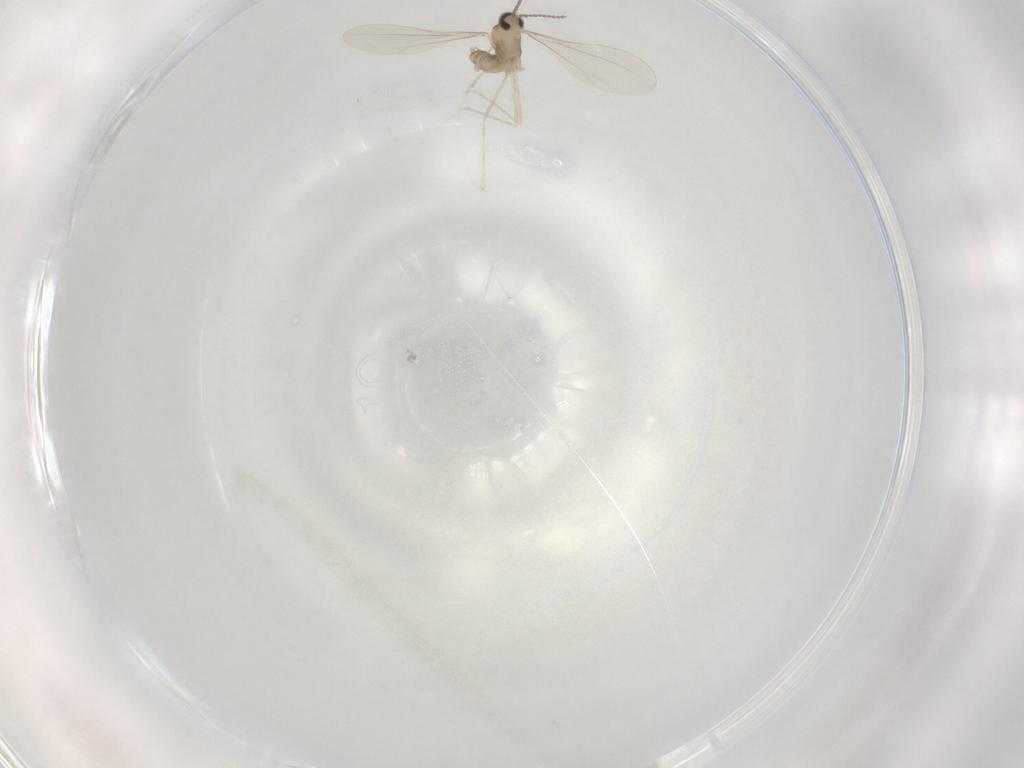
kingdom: Animalia
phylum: Arthropoda
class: Insecta
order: Diptera
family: Cecidomyiidae
